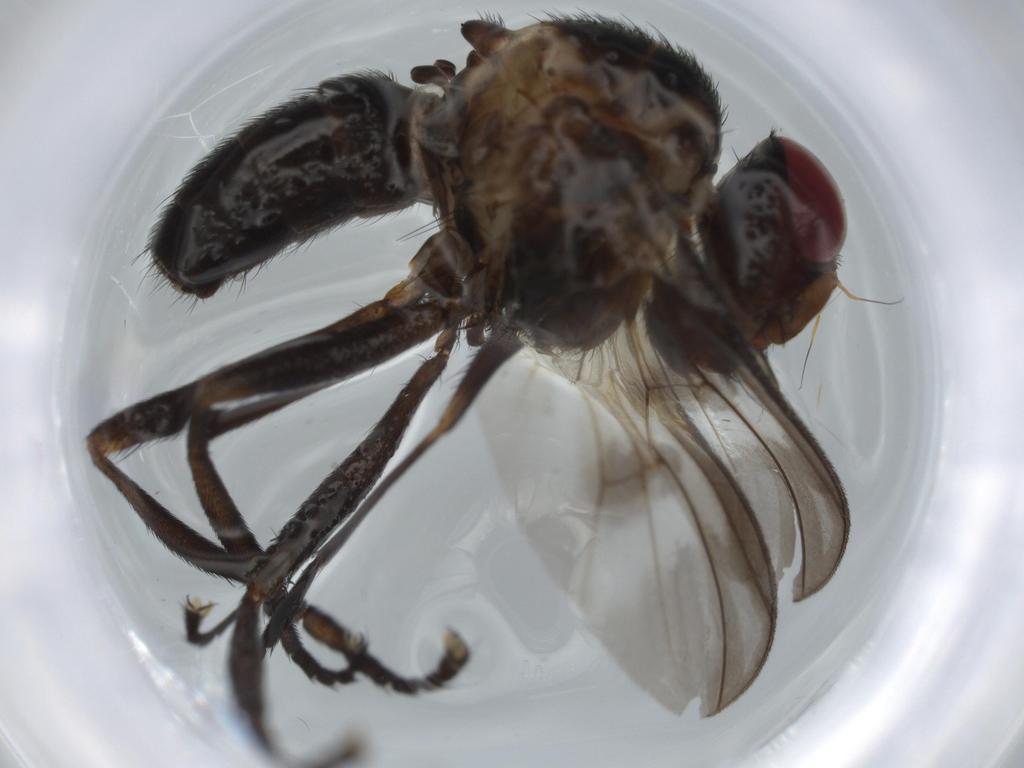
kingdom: Animalia
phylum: Arthropoda
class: Insecta
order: Diptera
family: Calliphoridae
